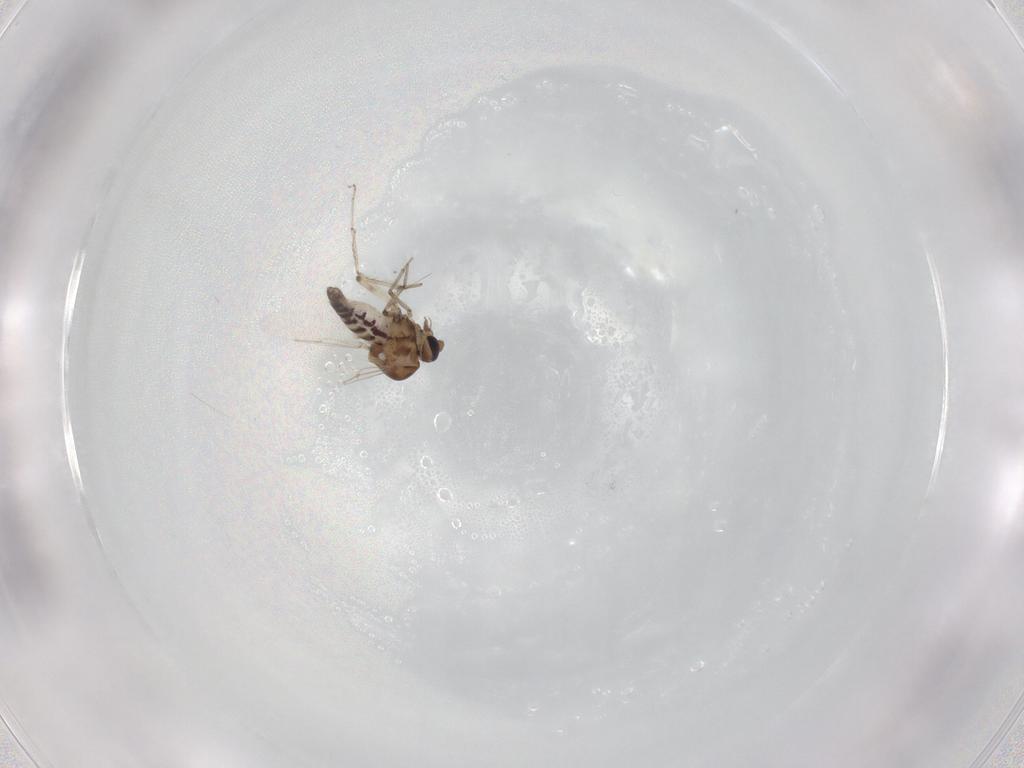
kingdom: Animalia
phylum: Arthropoda
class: Insecta
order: Diptera
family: Ceratopogonidae
